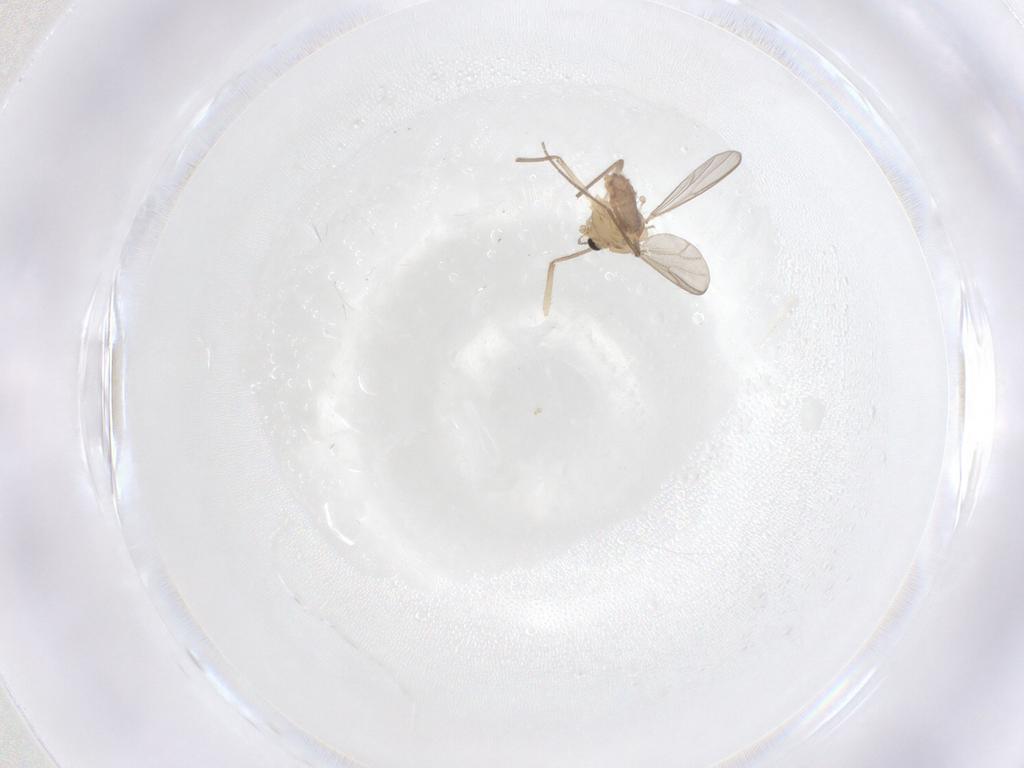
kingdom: Animalia
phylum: Arthropoda
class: Insecta
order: Diptera
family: Chironomidae
